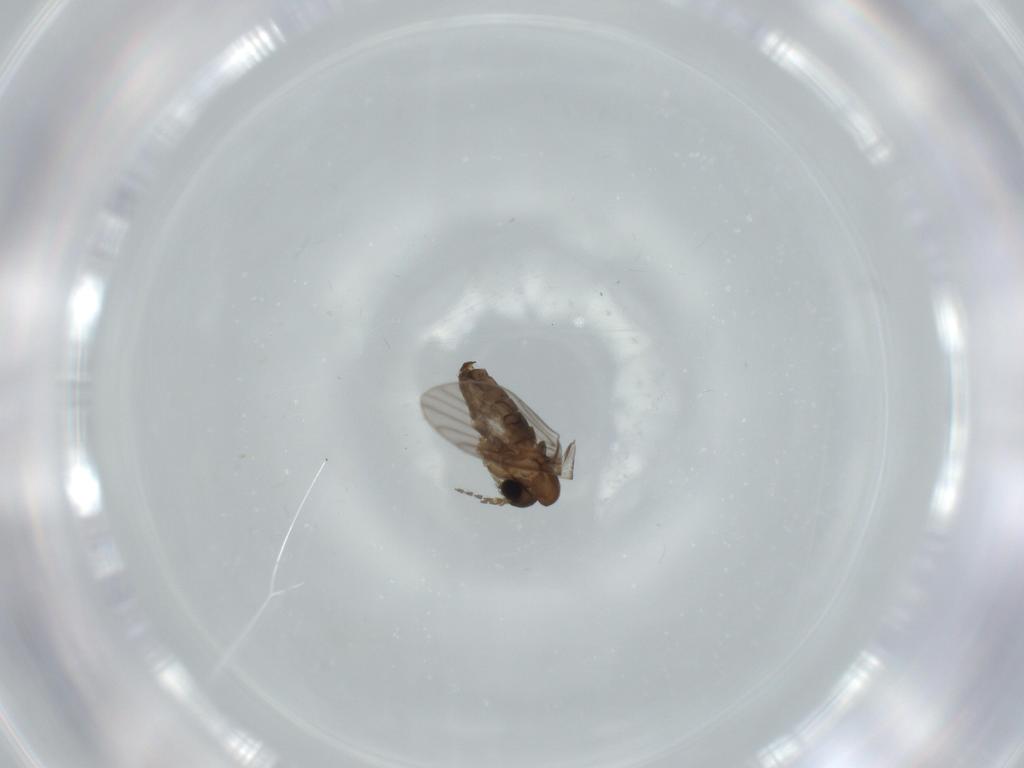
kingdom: Animalia
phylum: Arthropoda
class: Insecta
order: Diptera
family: Psychodidae
